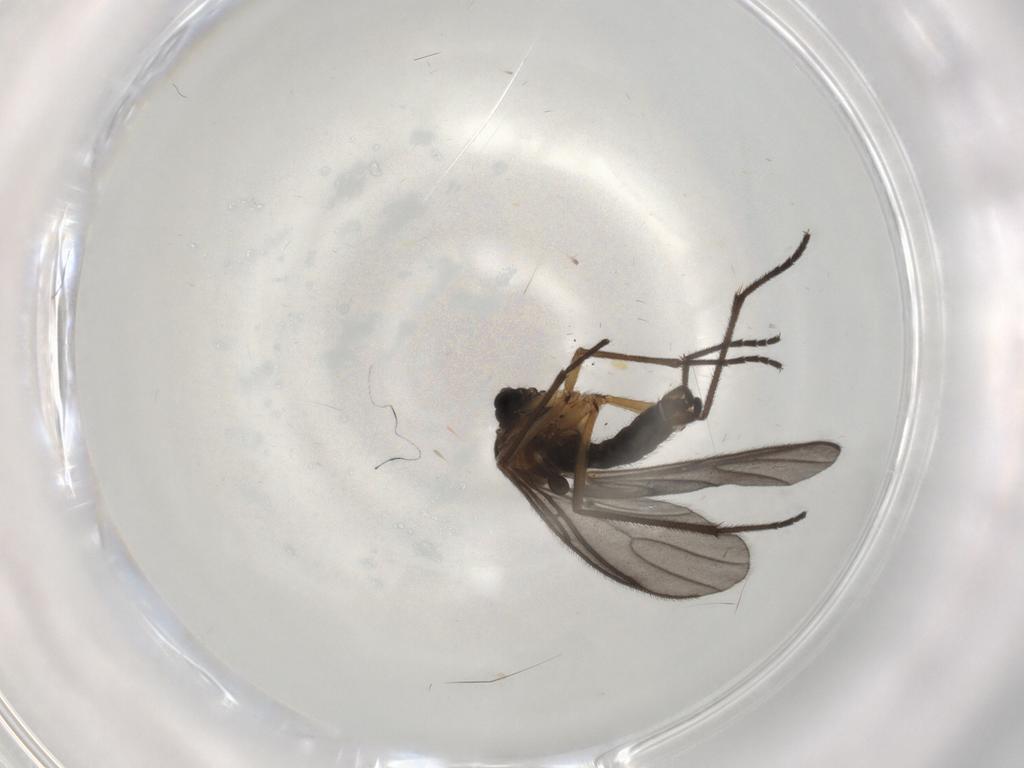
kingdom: Animalia
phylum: Arthropoda
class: Insecta
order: Diptera
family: Sciaridae
